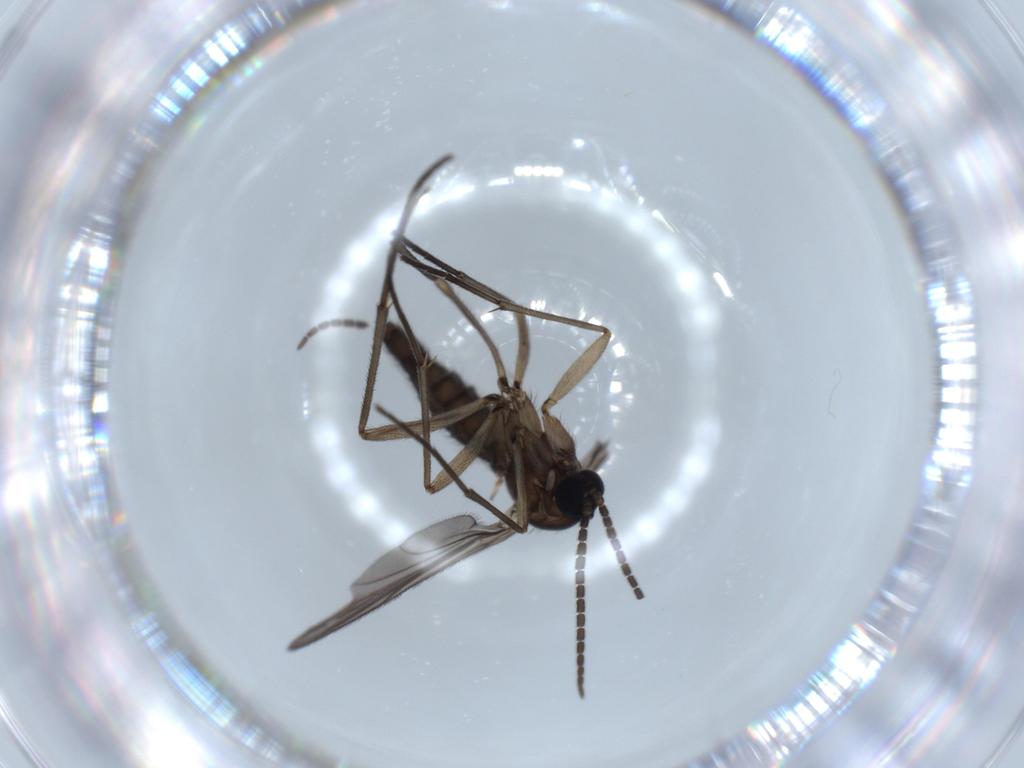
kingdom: Animalia
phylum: Arthropoda
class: Insecta
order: Diptera
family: Sciaridae
